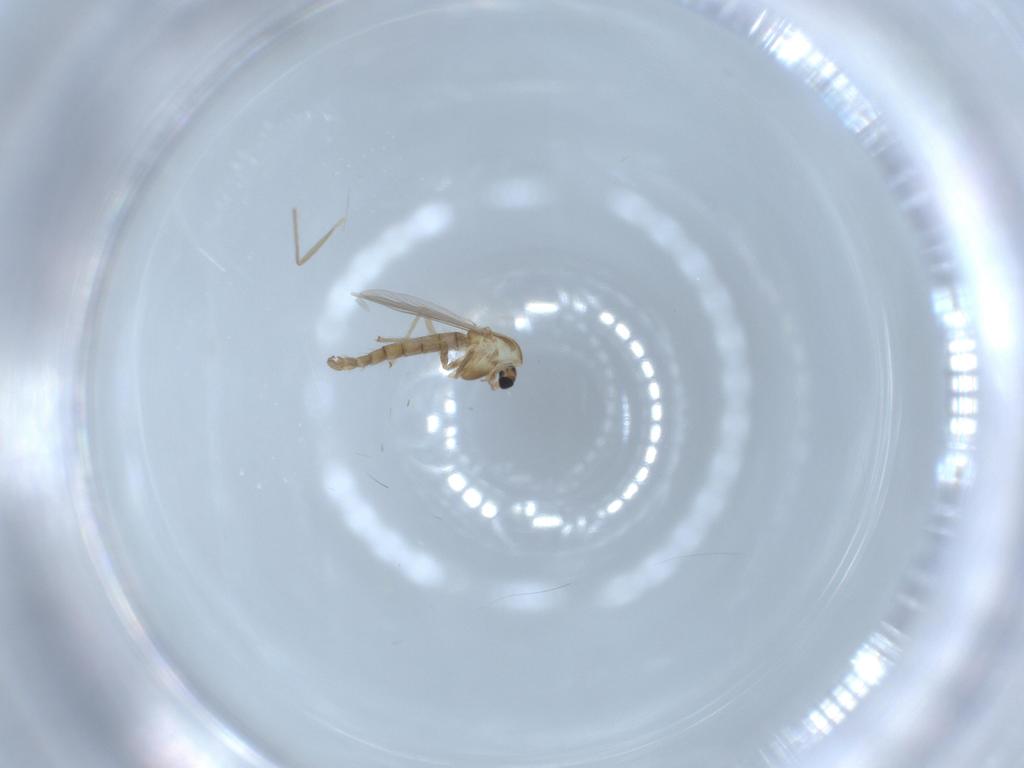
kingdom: Animalia
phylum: Arthropoda
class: Insecta
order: Diptera
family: Chironomidae
